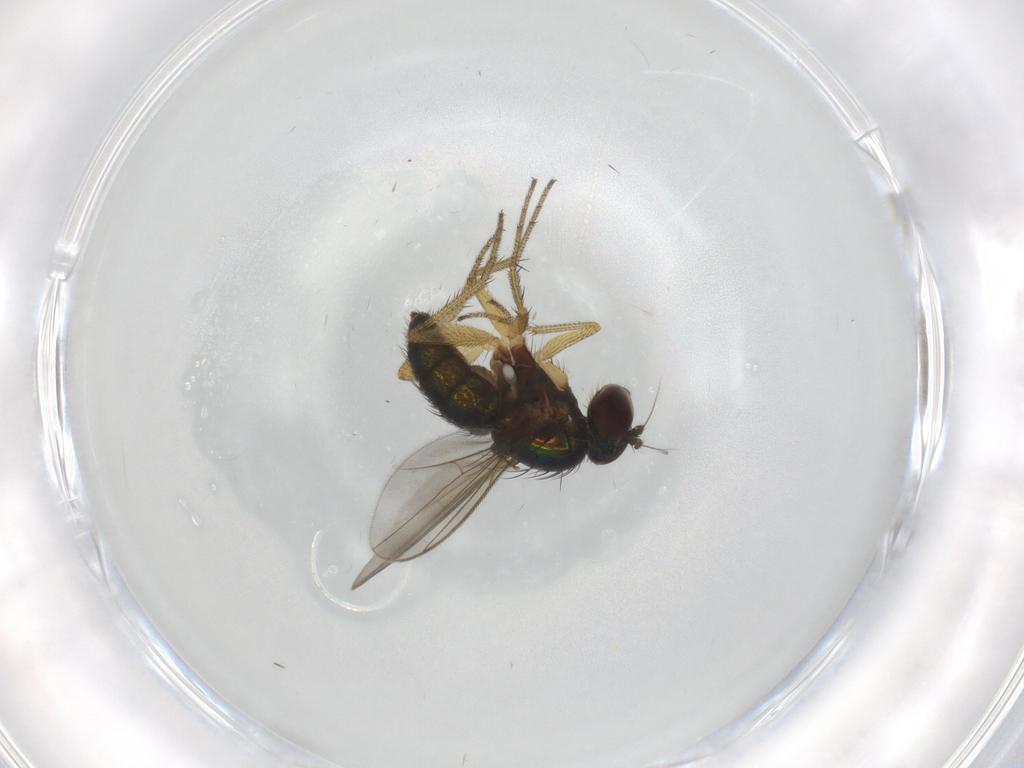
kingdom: Animalia
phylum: Arthropoda
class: Insecta
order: Diptera
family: Dolichopodidae
